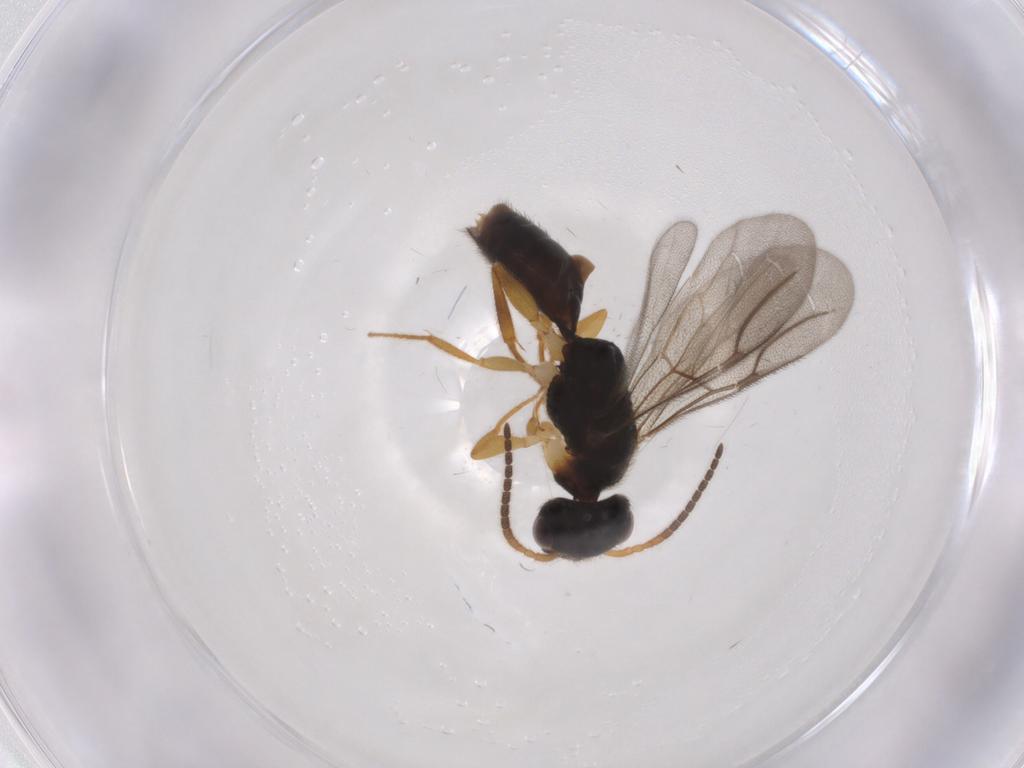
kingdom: Animalia
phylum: Arthropoda
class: Insecta
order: Hymenoptera
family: Bethylidae
